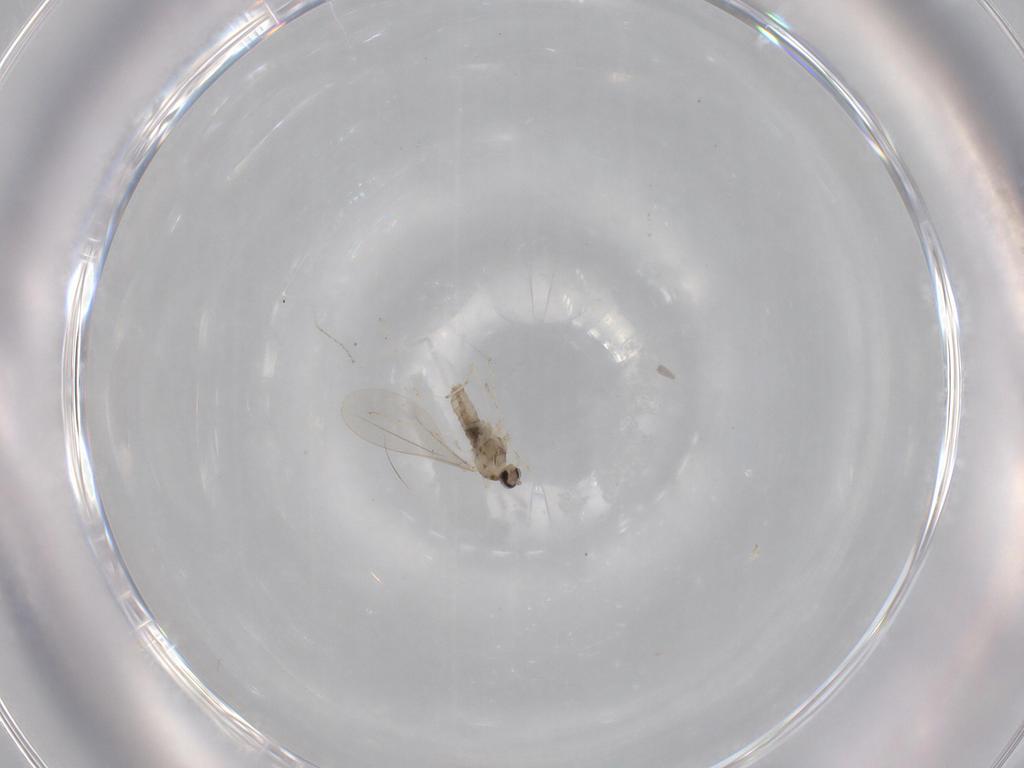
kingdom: Animalia
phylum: Arthropoda
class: Insecta
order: Diptera
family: Cecidomyiidae
